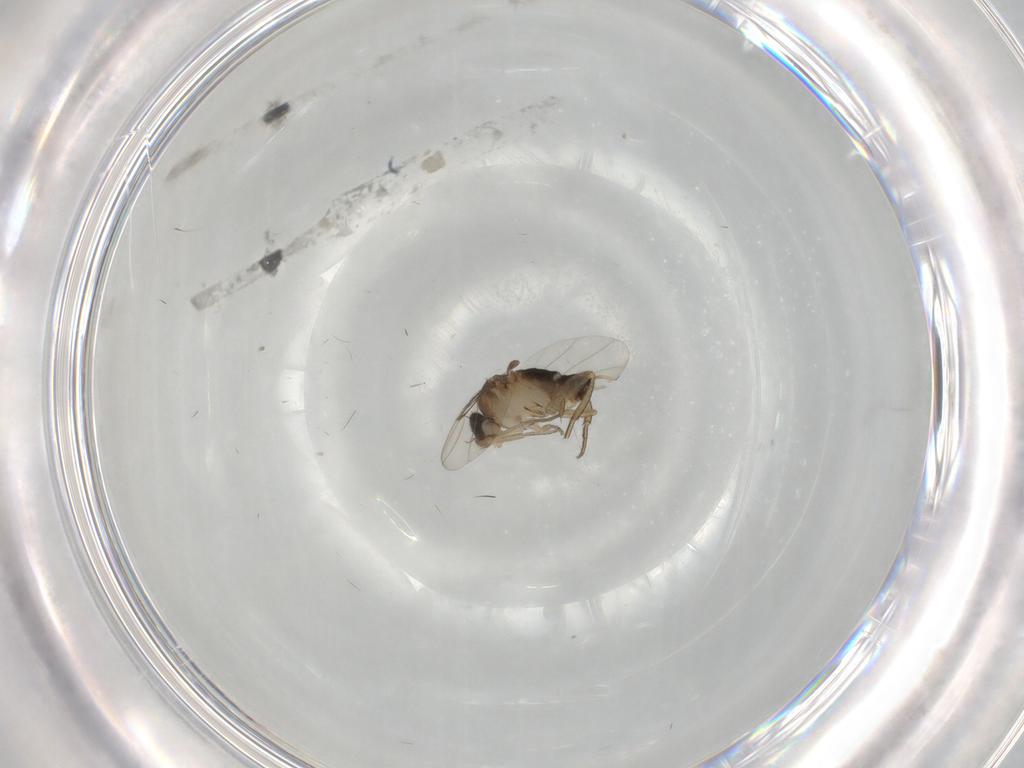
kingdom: Animalia
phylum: Arthropoda
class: Insecta
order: Diptera
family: Phoridae
